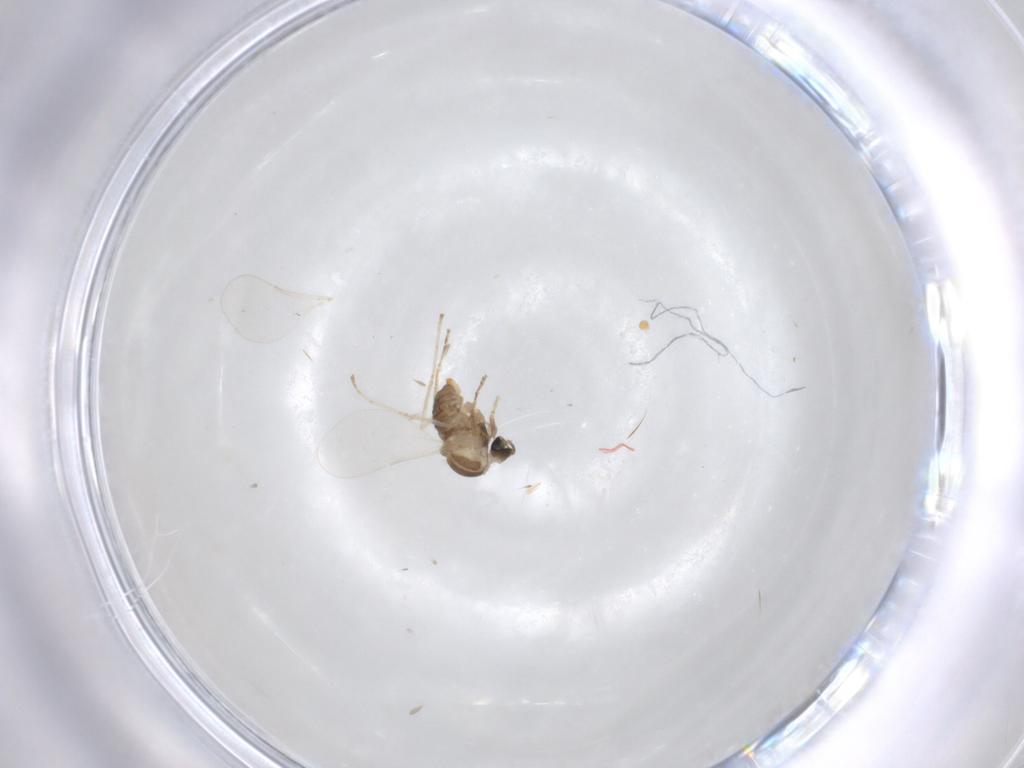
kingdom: Animalia
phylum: Arthropoda
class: Insecta
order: Diptera
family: Cecidomyiidae
